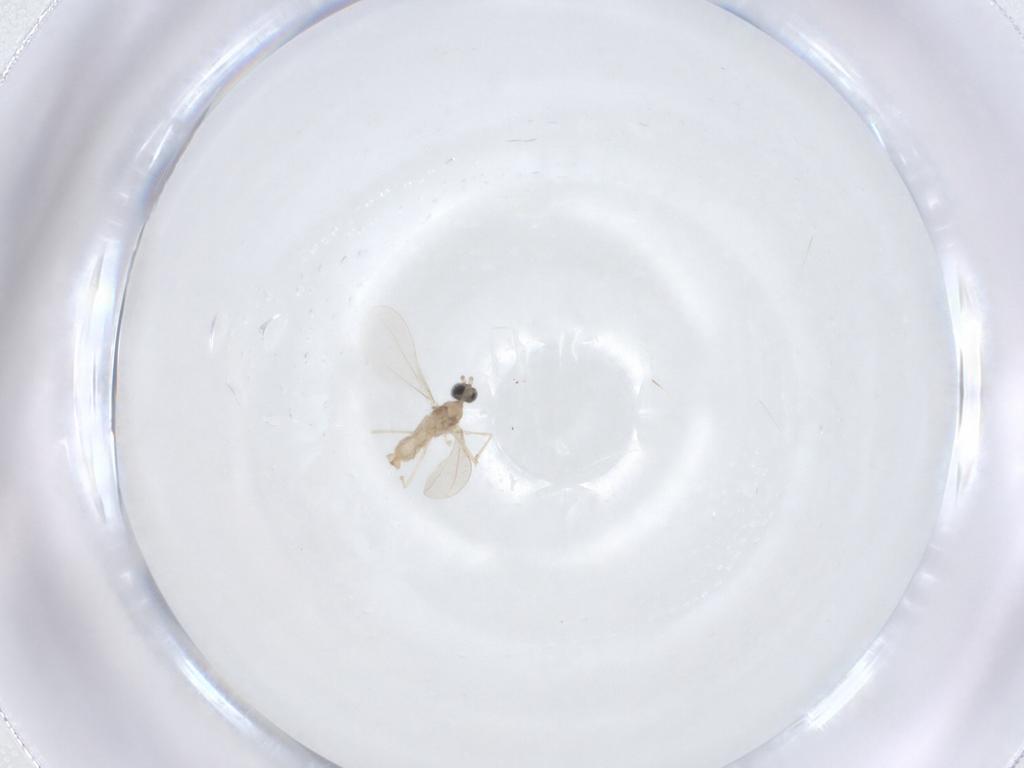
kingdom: Animalia
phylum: Arthropoda
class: Insecta
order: Diptera
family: Cecidomyiidae
